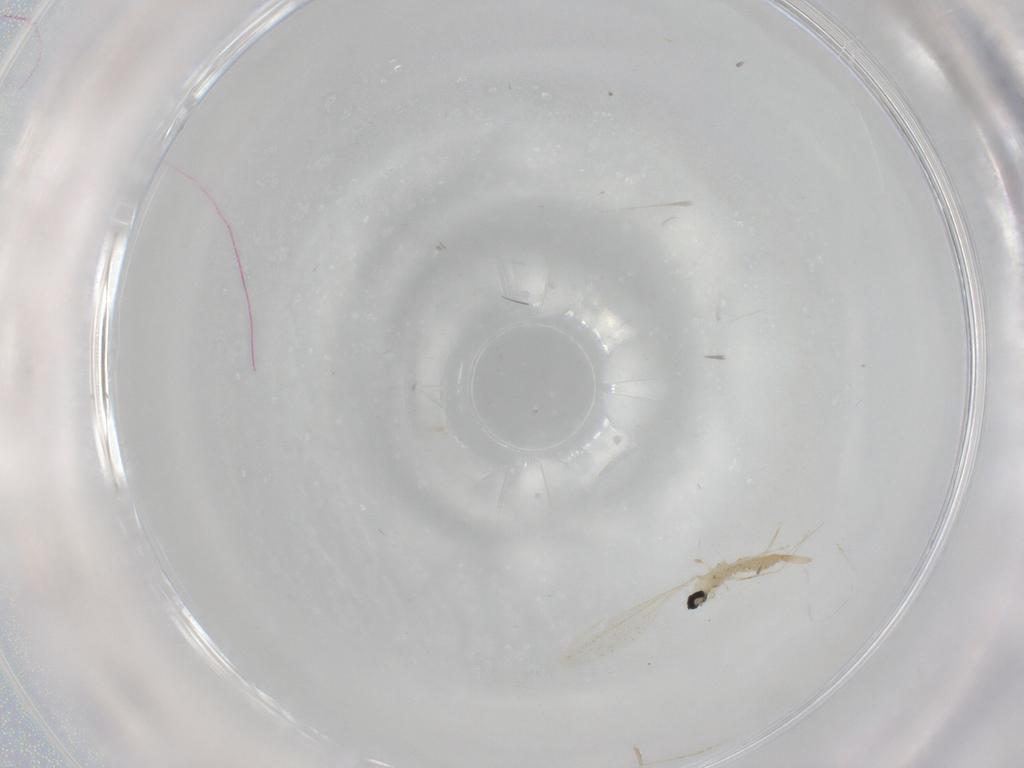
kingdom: Animalia
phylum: Arthropoda
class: Insecta
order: Diptera
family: Cecidomyiidae
